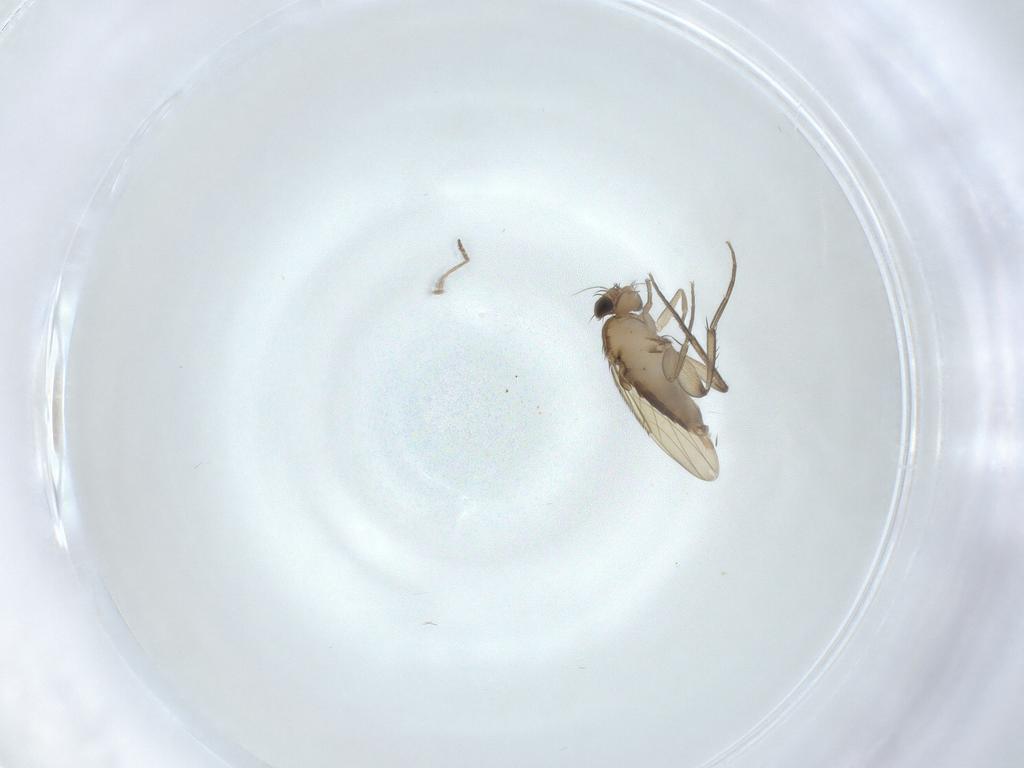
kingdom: Animalia
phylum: Arthropoda
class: Insecta
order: Diptera
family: Phoridae
